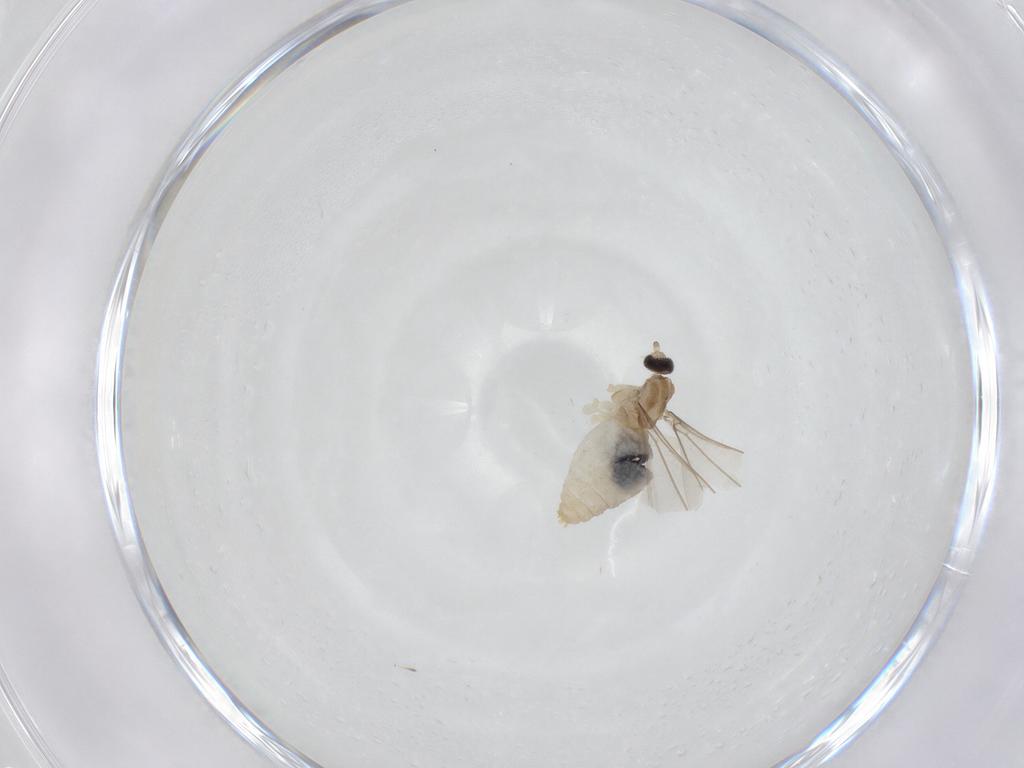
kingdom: Animalia
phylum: Arthropoda
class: Insecta
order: Diptera
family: Cecidomyiidae
